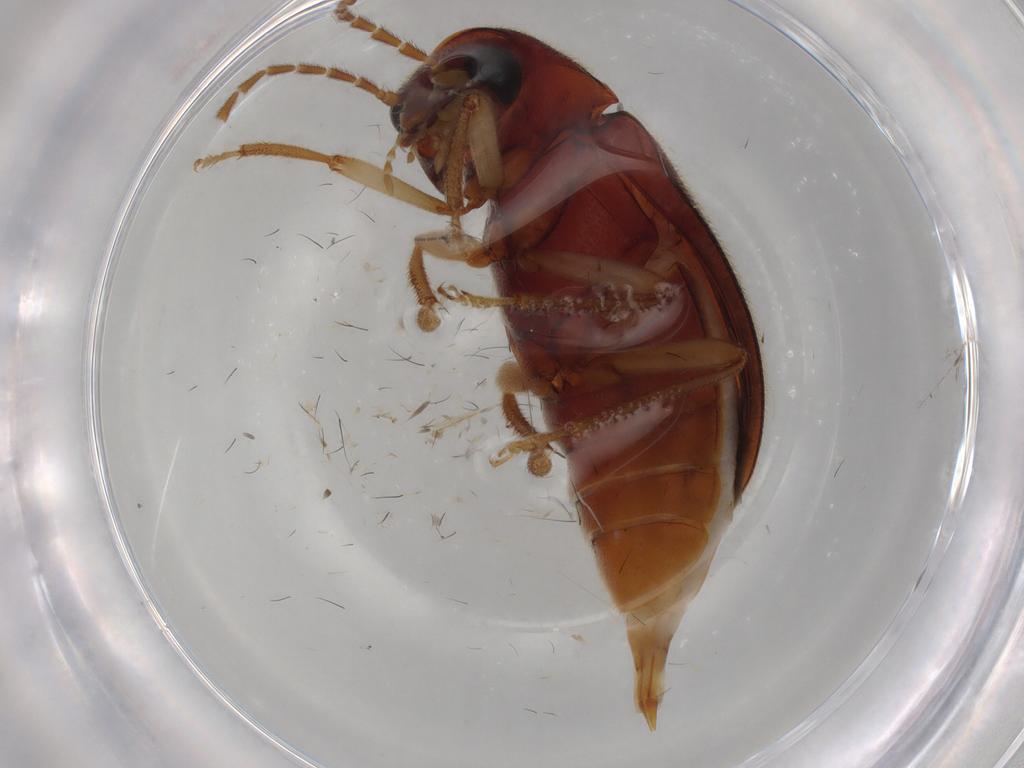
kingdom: Animalia
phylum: Arthropoda
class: Insecta
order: Coleoptera
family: Ptilodactylidae
